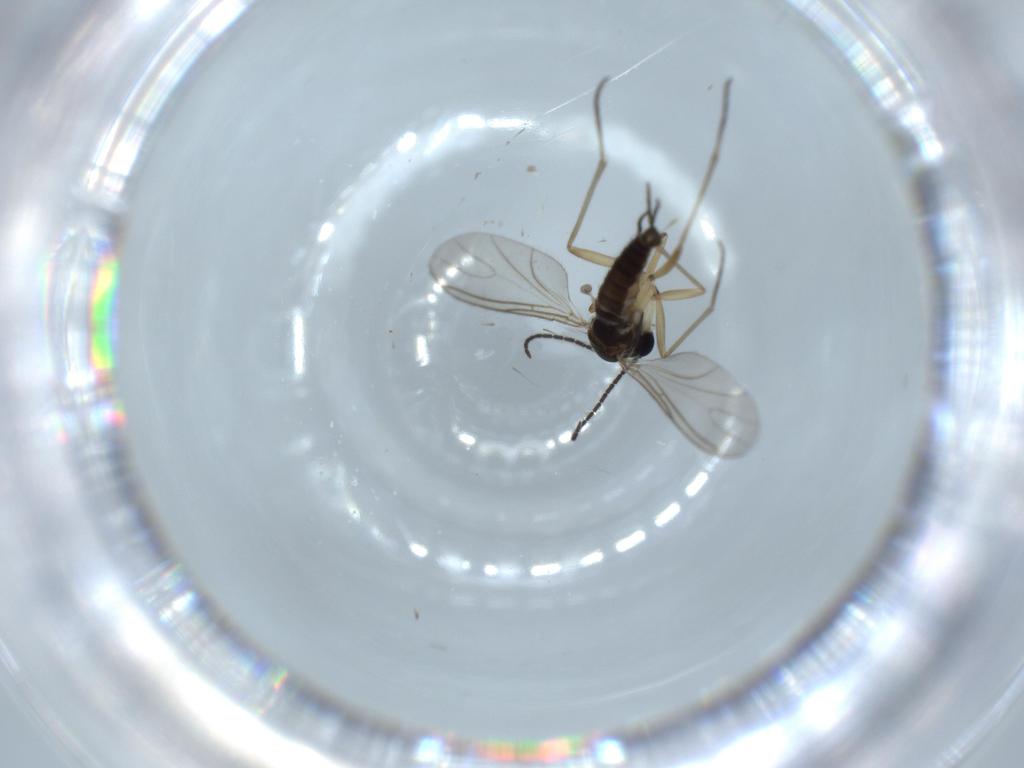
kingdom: Animalia
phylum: Arthropoda
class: Insecta
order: Diptera
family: Sciaridae
